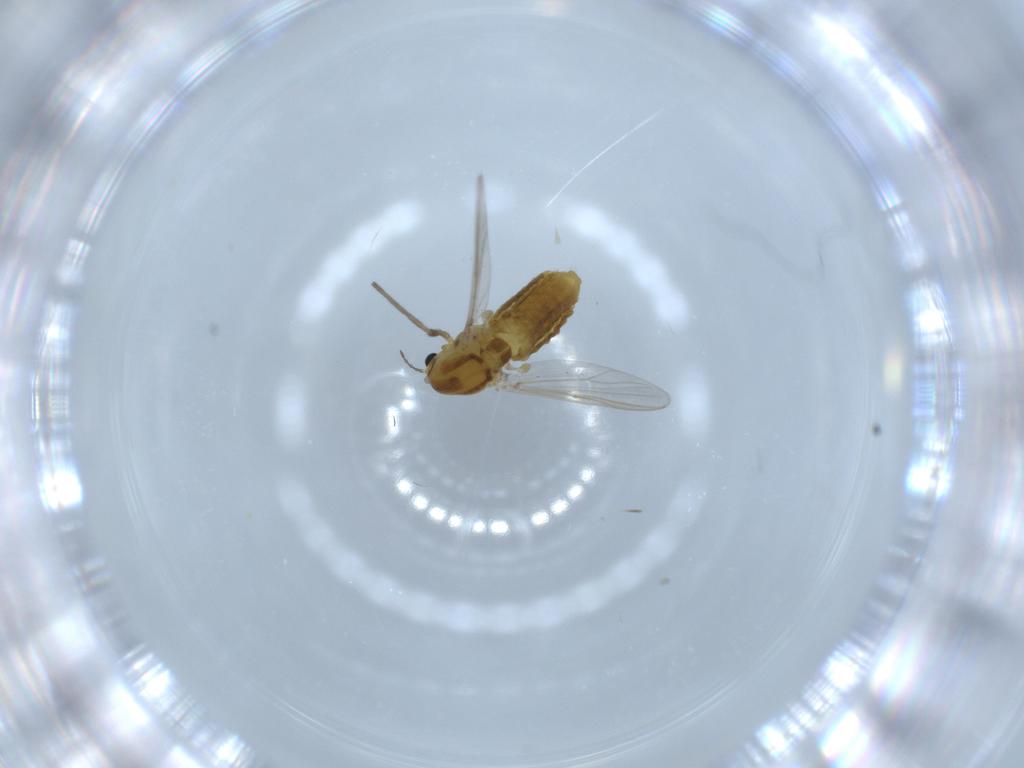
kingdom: Animalia
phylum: Arthropoda
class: Insecta
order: Diptera
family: Chironomidae
